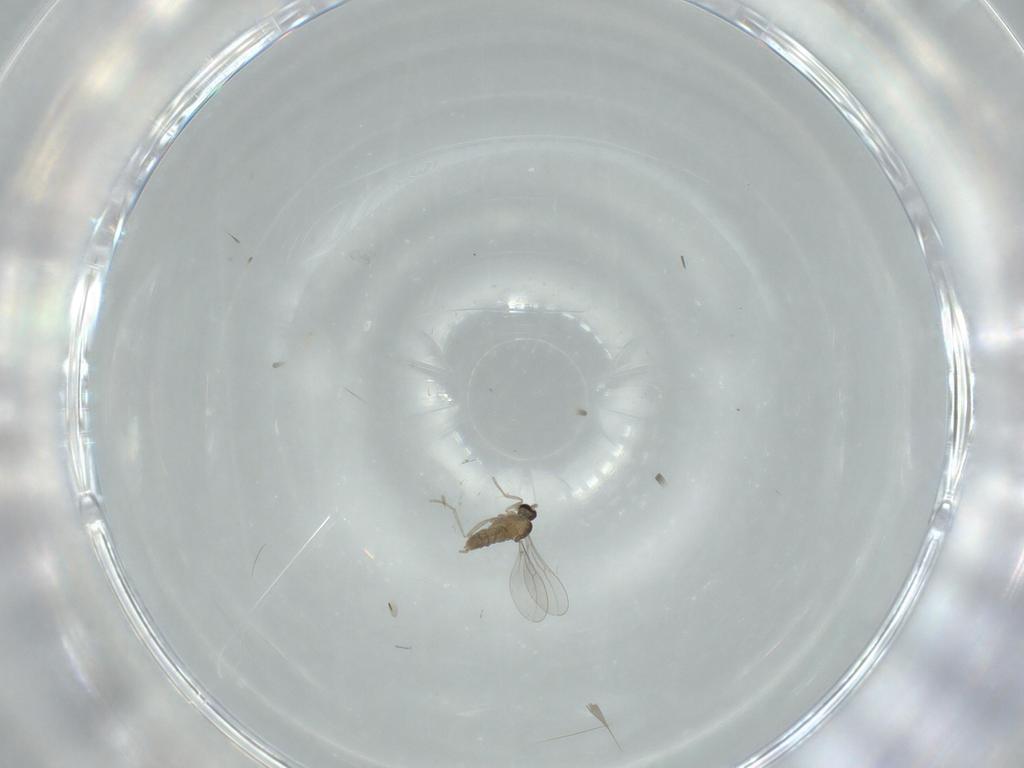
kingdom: Animalia
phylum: Arthropoda
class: Insecta
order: Diptera
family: Cecidomyiidae
